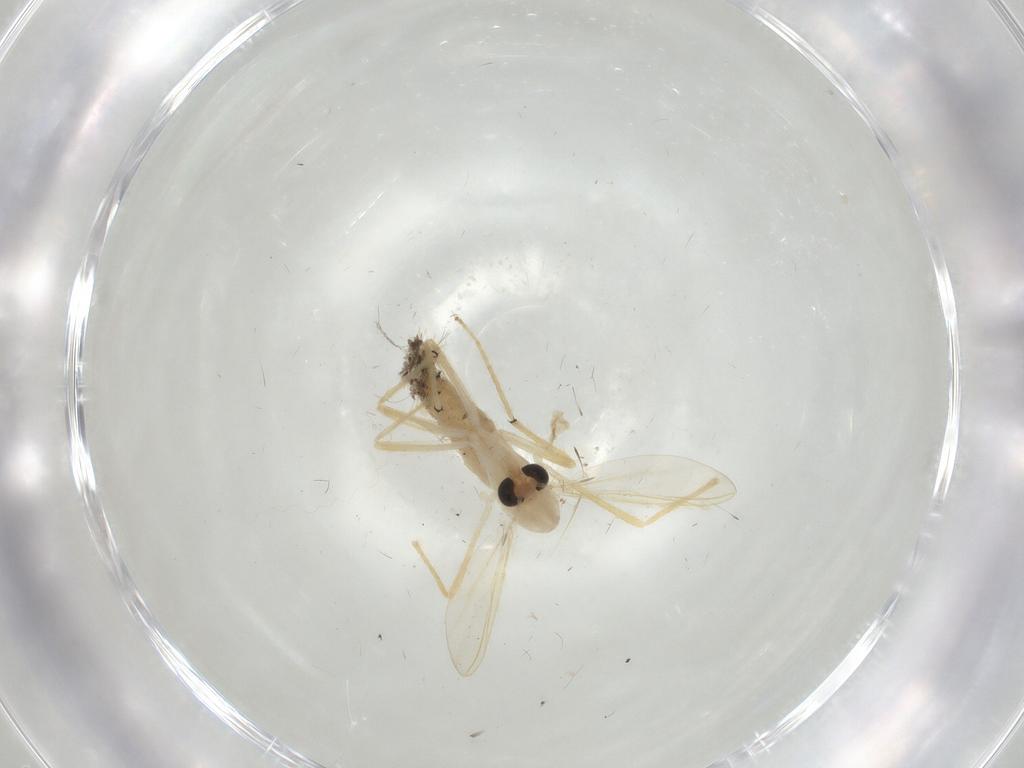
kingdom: Animalia
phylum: Arthropoda
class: Insecta
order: Diptera
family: Chironomidae
